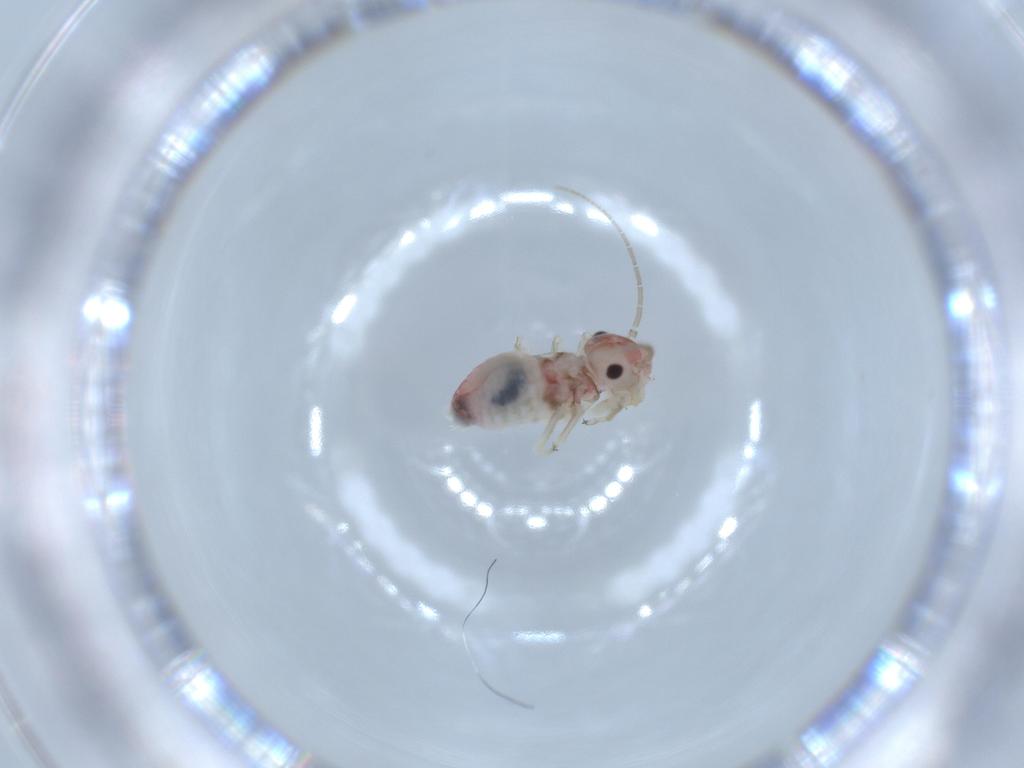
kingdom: Animalia
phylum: Arthropoda
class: Insecta
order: Psocodea
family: Amphipsocidae
